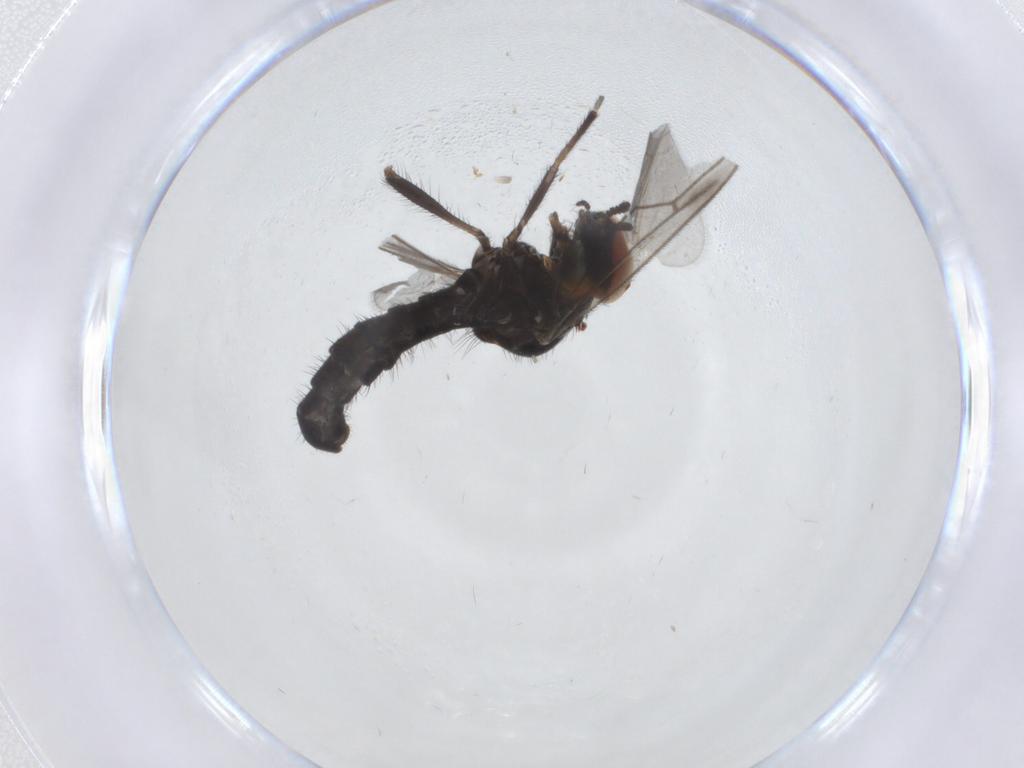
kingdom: Animalia
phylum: Arthropoda
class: Insecta
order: Diptera
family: Bibionidae
